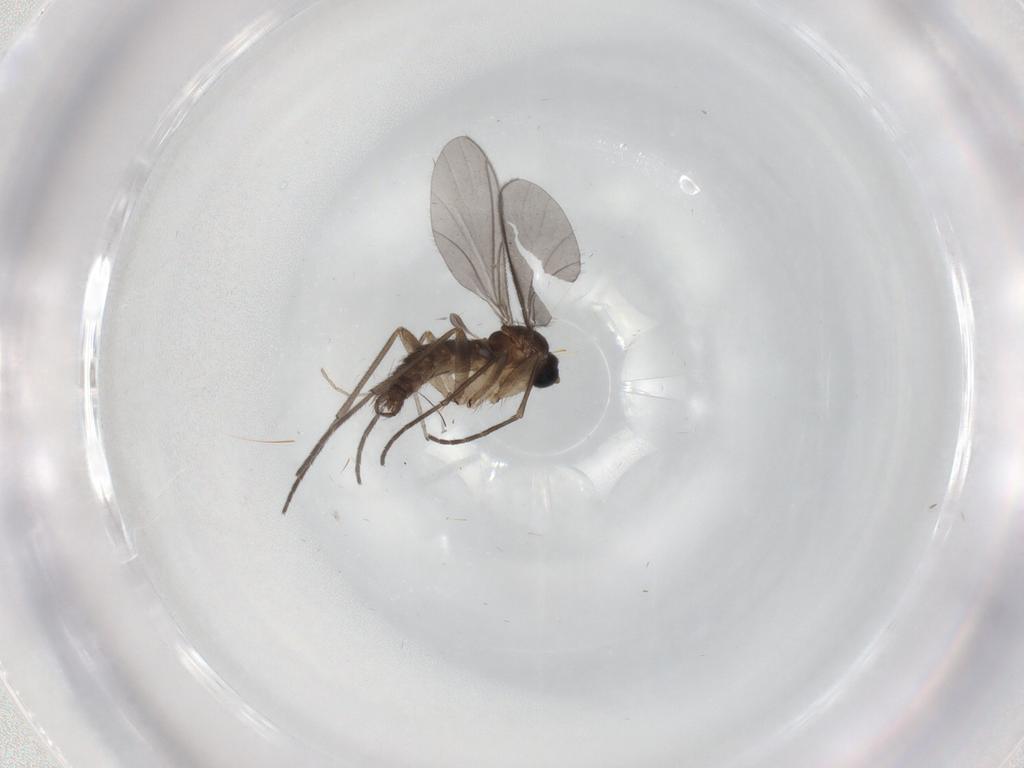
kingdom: Animalia
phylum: Arthropoda
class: Insecta
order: Diptera
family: Sciaridae
